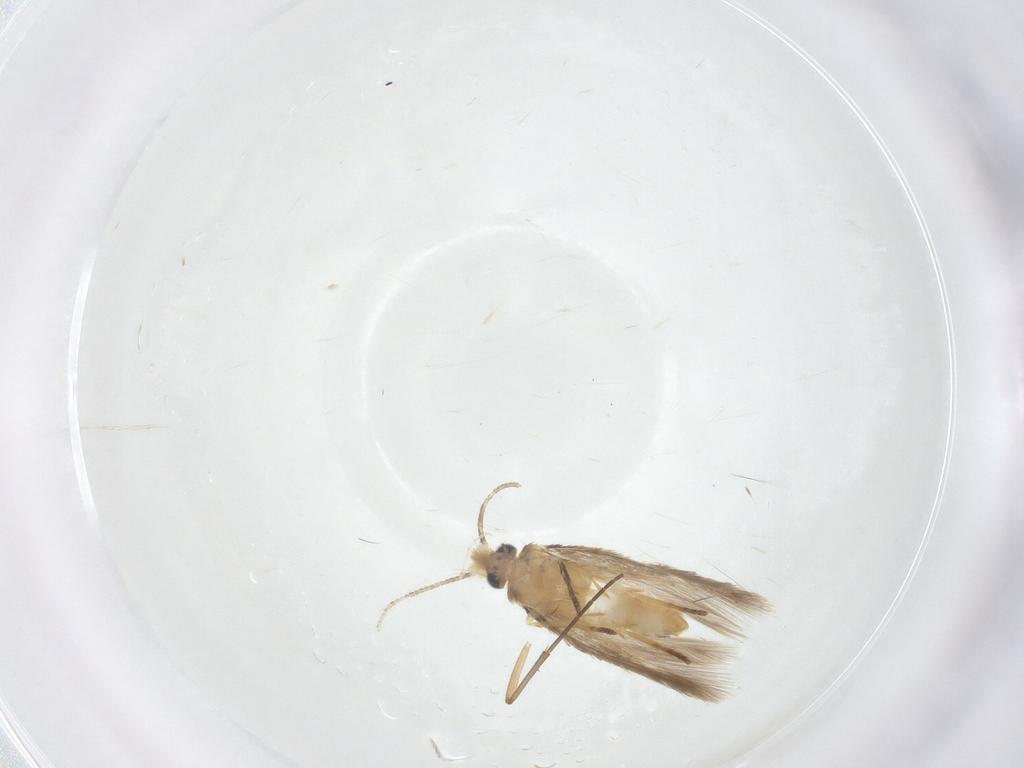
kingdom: Animalia
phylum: Arthropoda
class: Insecta
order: Lepidoptera
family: Nepticulidae
